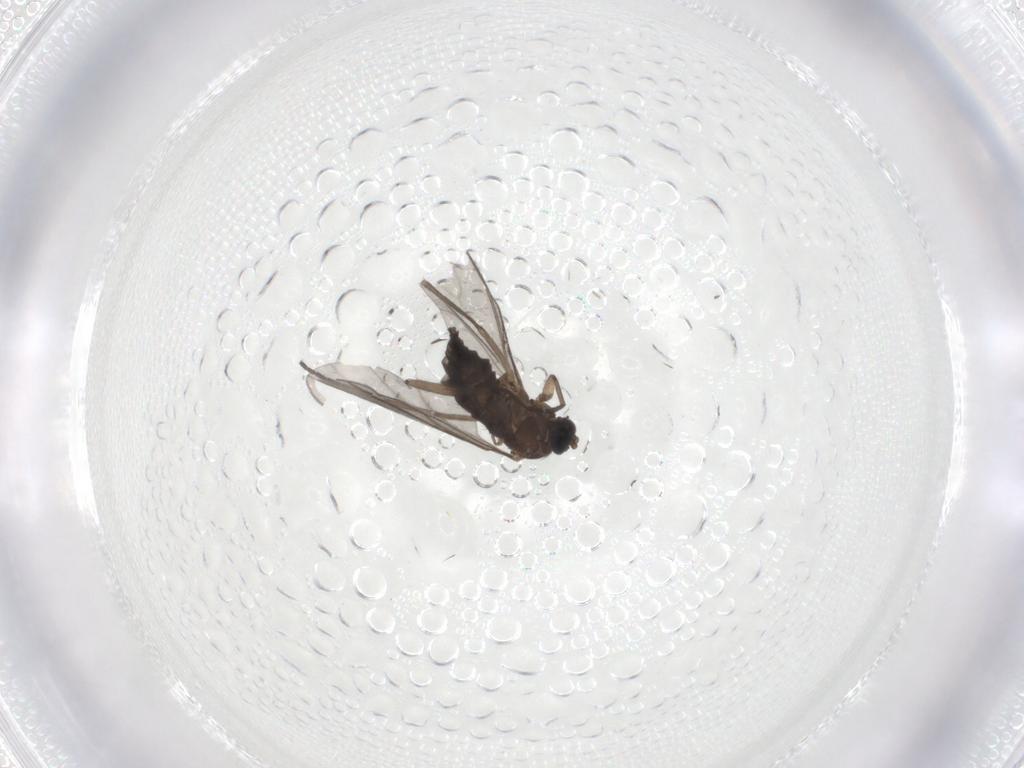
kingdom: Animalia
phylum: Arthropoda
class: Insecta
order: Diptera
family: Sciaridae
